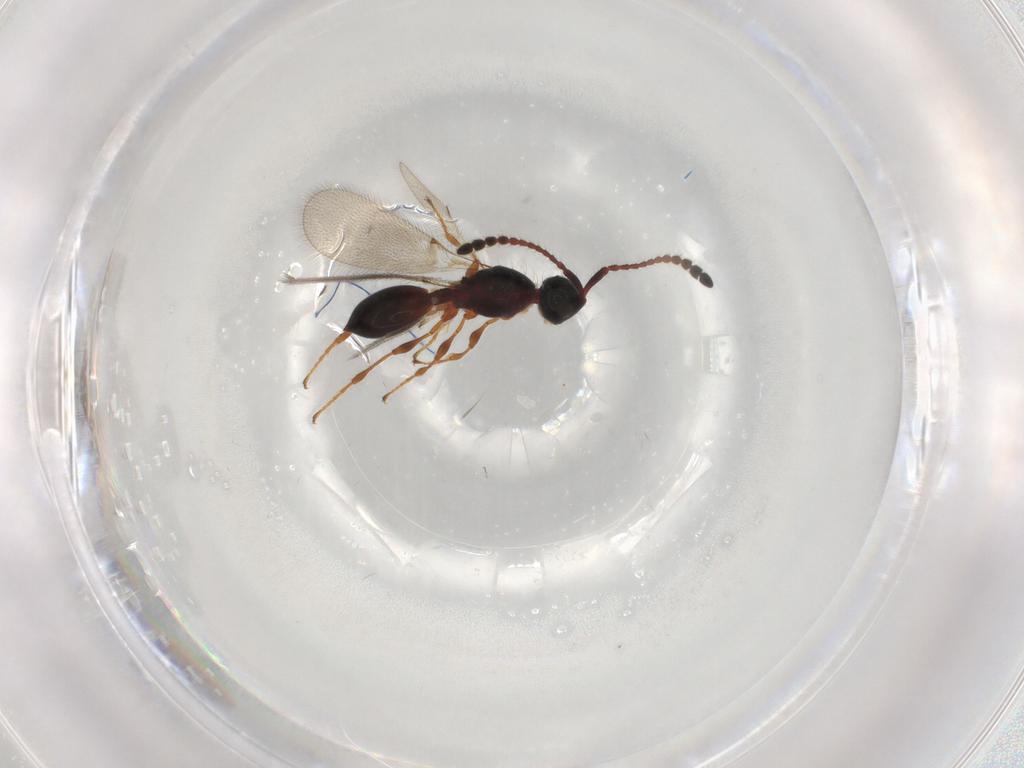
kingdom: Animalia
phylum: Arthropoda
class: Insecta
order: Hymenoptera
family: Diapriidae
